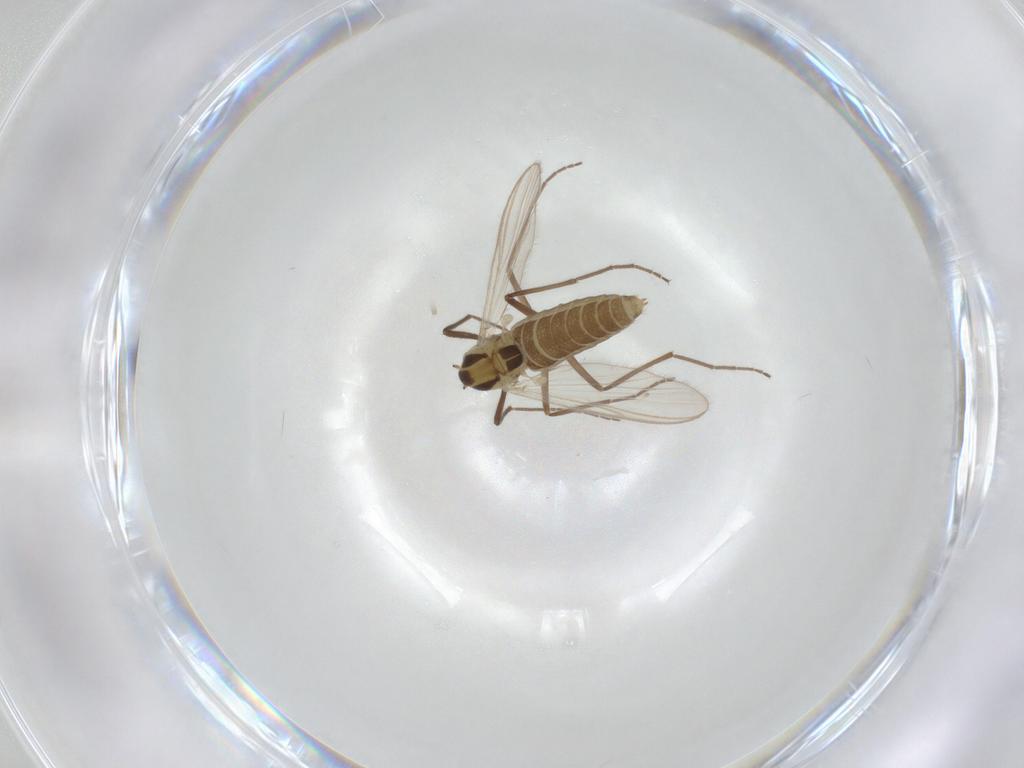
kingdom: Animalia
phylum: Arthropoda
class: Insecta
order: Diptera
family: Chironomidae
